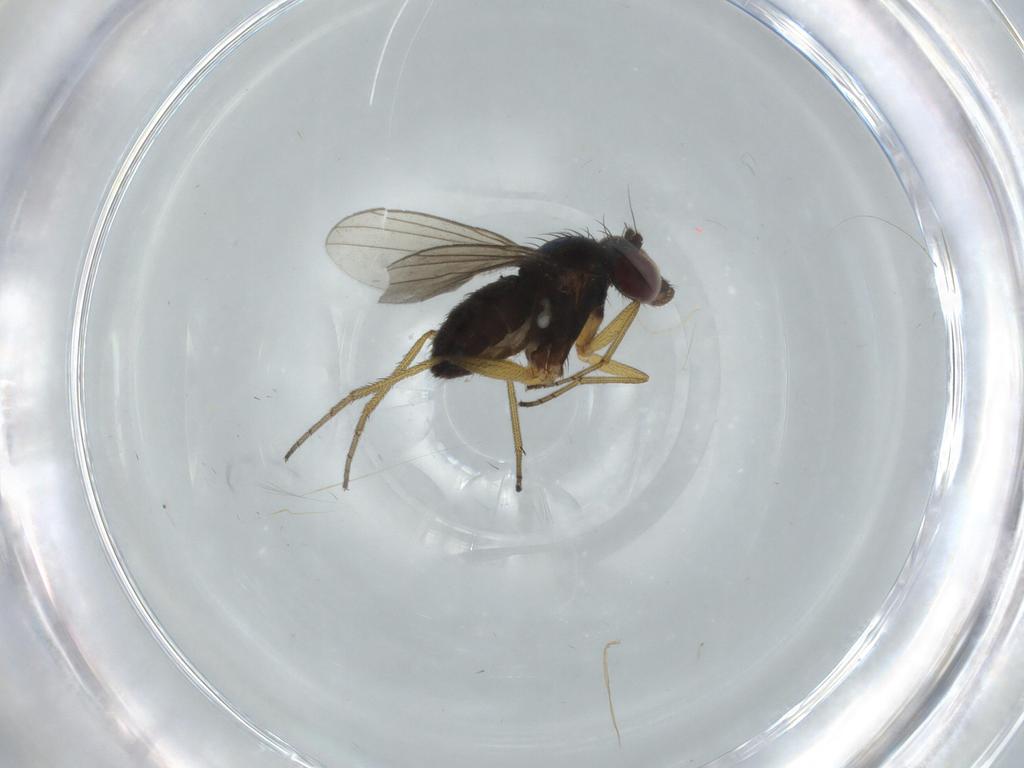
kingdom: Animalia
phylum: Arthropoda
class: Insecta
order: Diptera
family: Dolichopodidae
